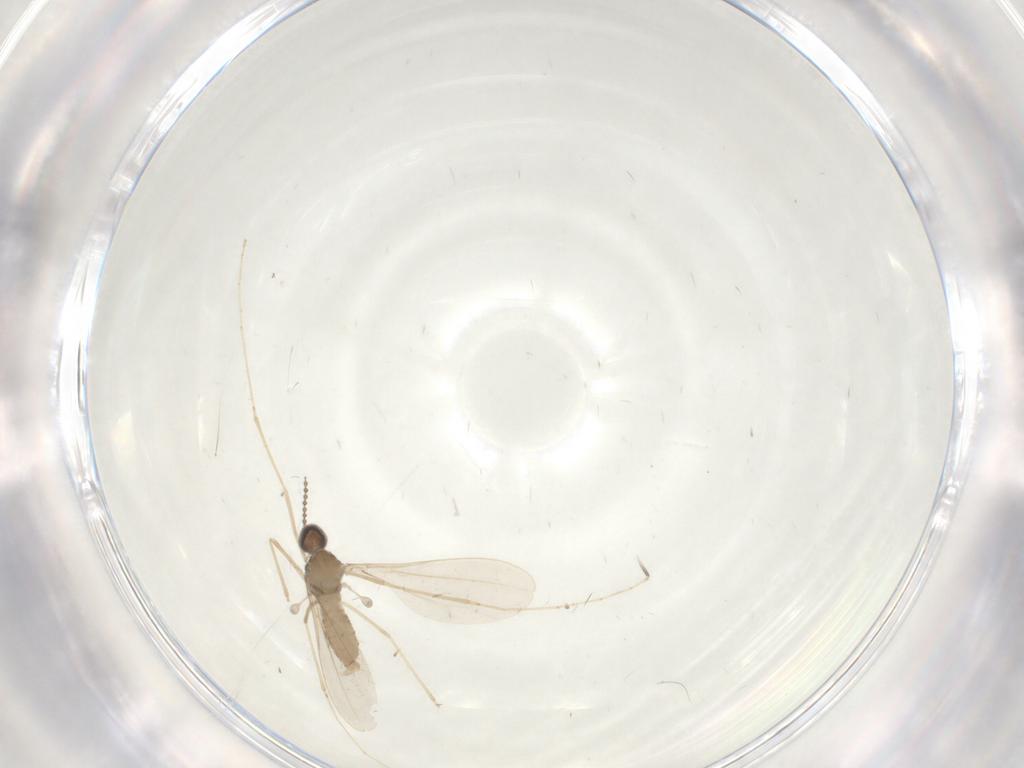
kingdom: Animalia
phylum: Arthropoda
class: Insecta
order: Diptera
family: Cecidomyiidae
